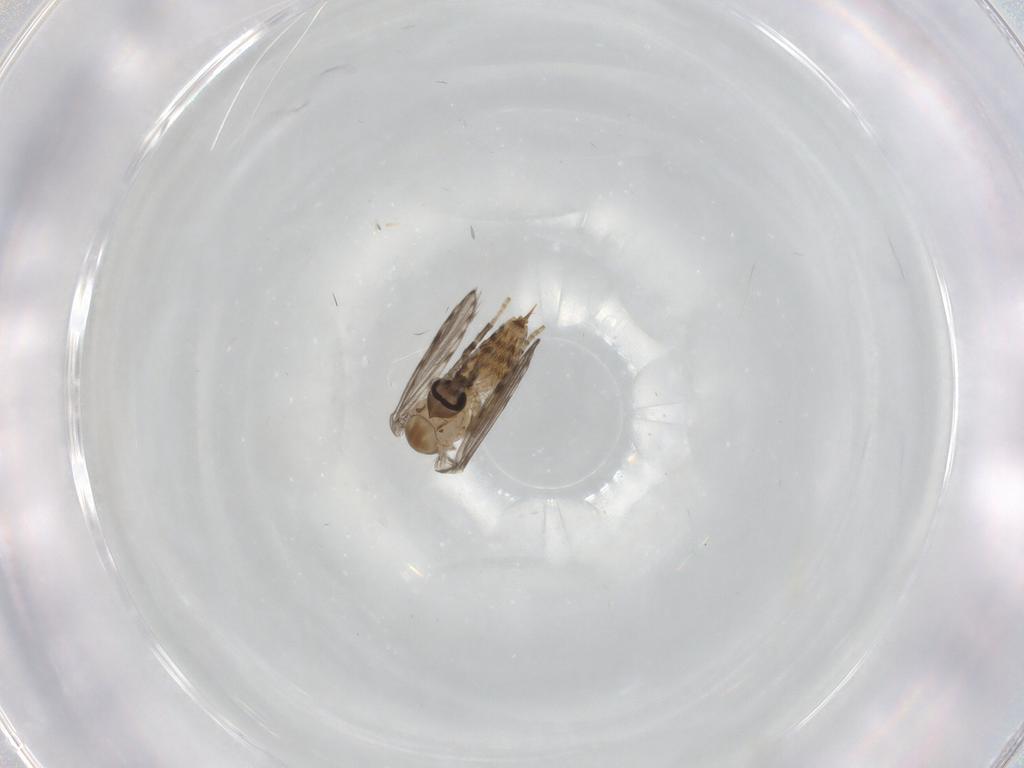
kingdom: Animalia
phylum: Arthropoda
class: Insecta
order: Diptera
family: Psychodidae
